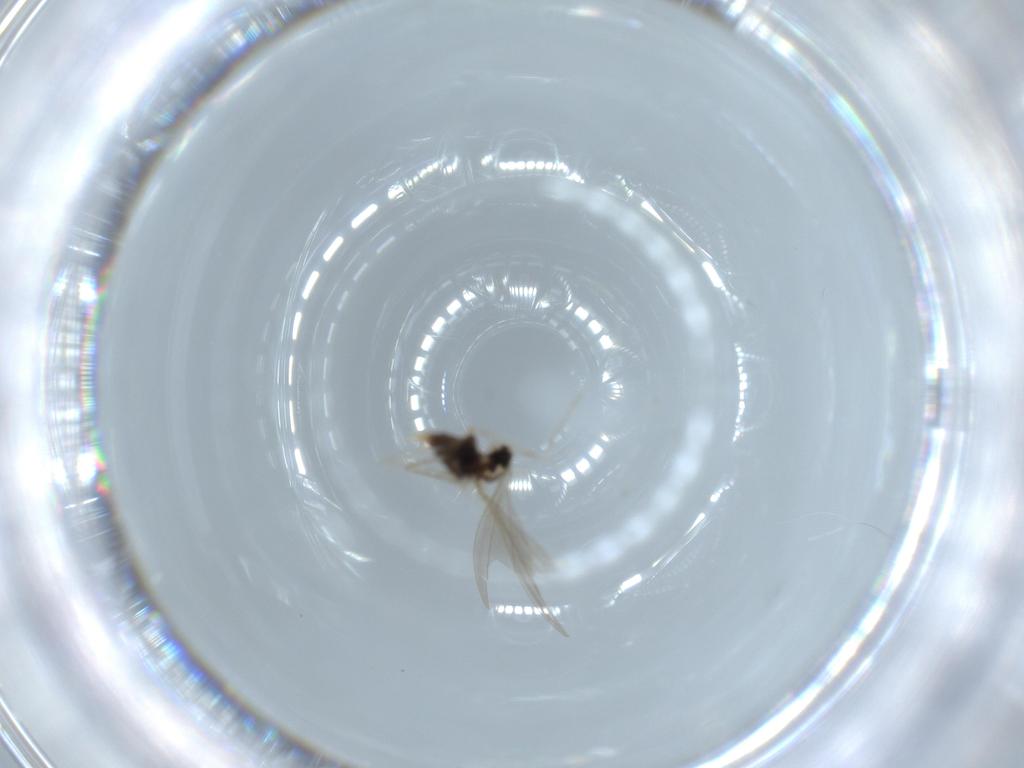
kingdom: Animalia
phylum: Arthropoda
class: Insecta
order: Diptera
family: Cecidomyiidae
